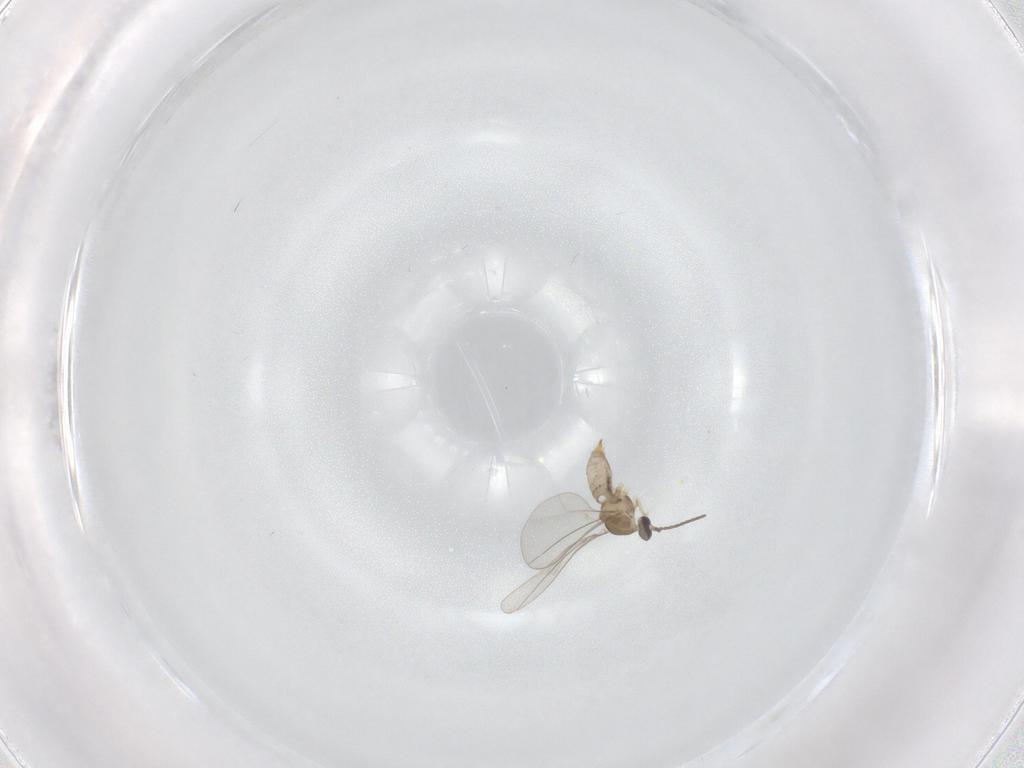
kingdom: Animalia
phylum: Arthropoda
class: Insecta
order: Diptera
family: Cecidomyiidae
